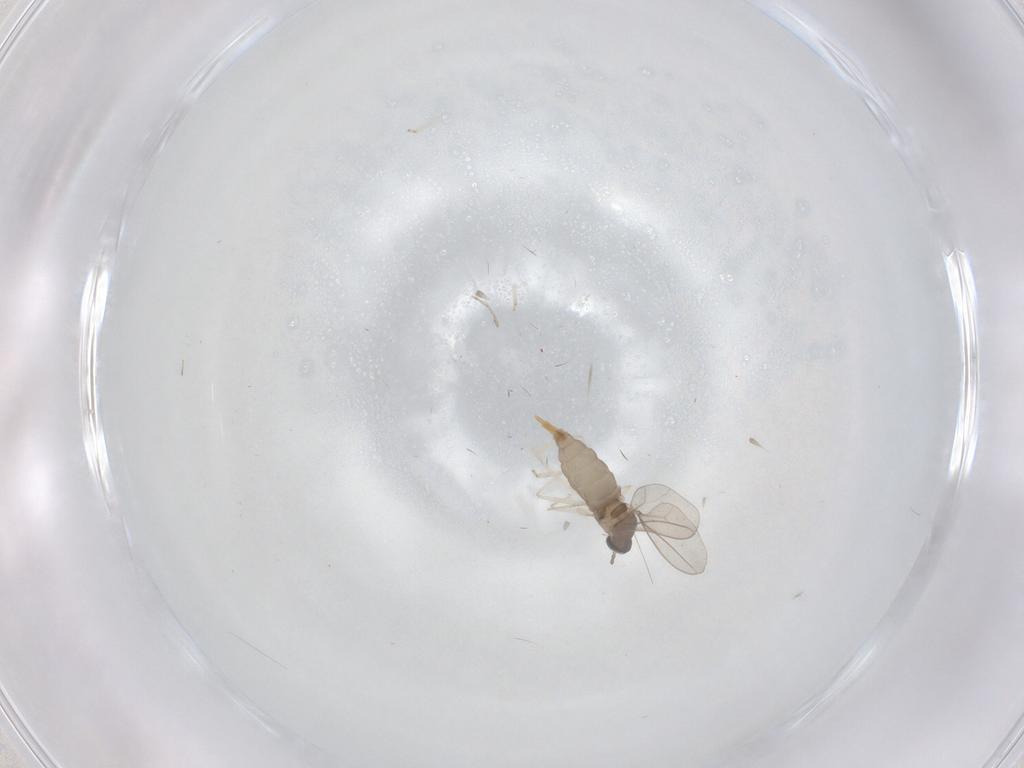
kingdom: Animalia
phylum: Arthropoda
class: Insecta
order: Diptera
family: Cecidomyiidae
